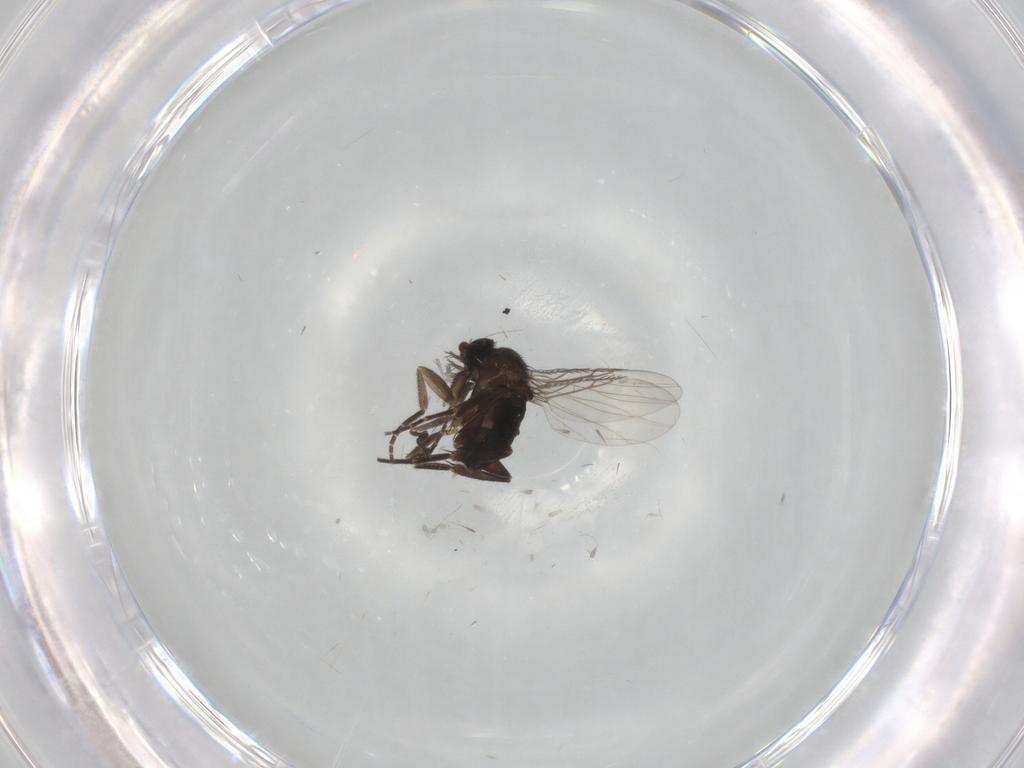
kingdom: Animalia
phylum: Arthropoda
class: Insecta
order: Diptera
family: Phoridae
